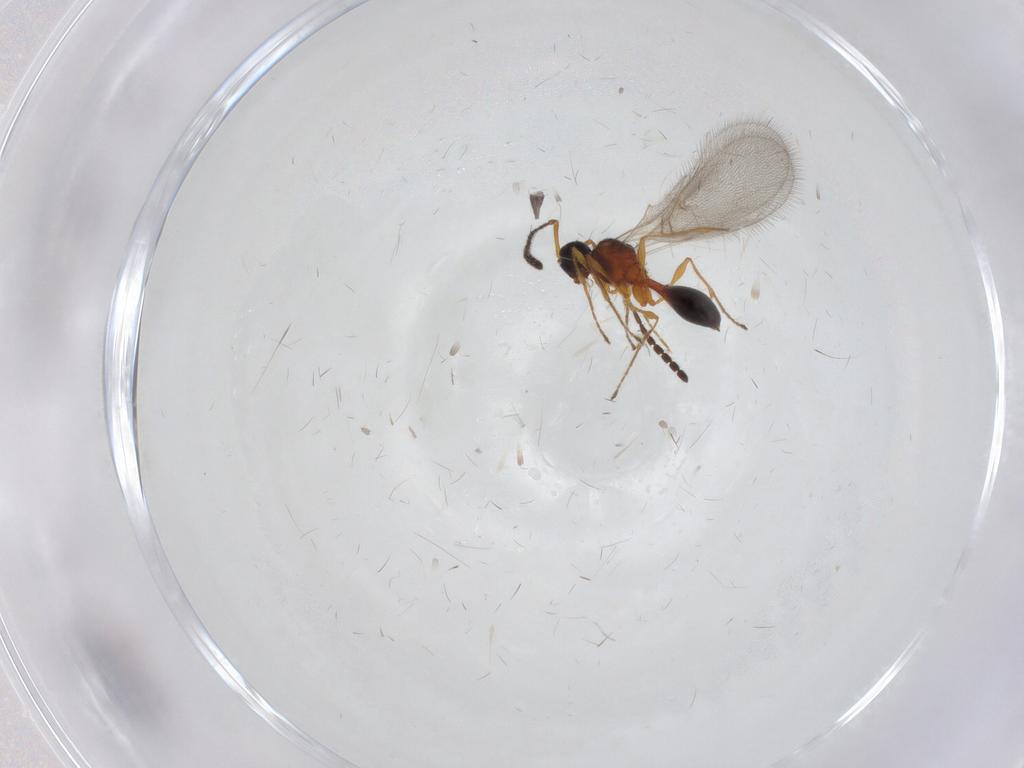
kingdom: Animalia
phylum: Arthropoda
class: Insecta
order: Hymenoptera
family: Diapriidae
